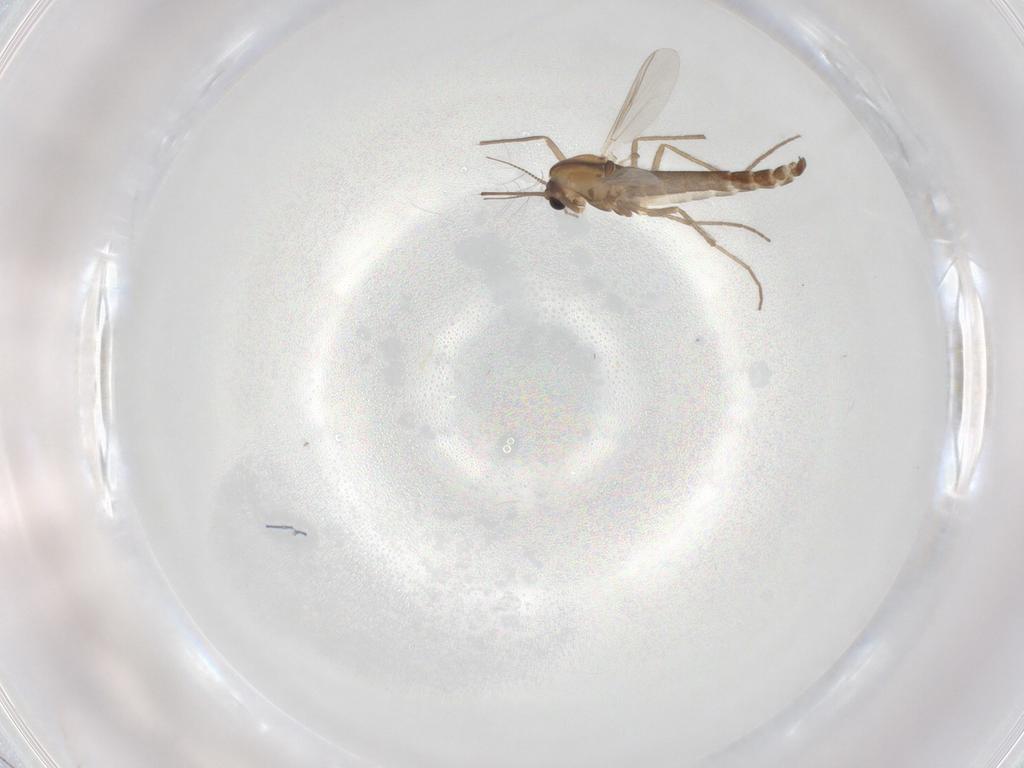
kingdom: Animalia
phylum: Arthropoda
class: Insecta
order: Diptera
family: Chironomidae
